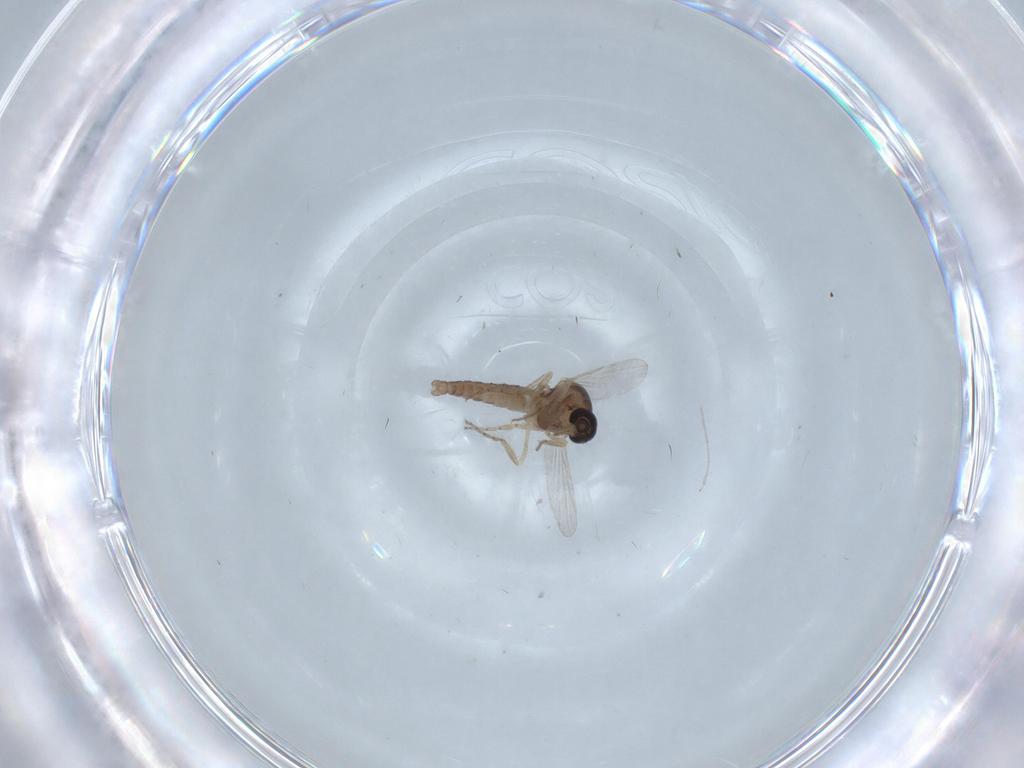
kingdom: Animalia
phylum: Arthropoda
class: Insecta
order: Diptera
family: Chironomidae
